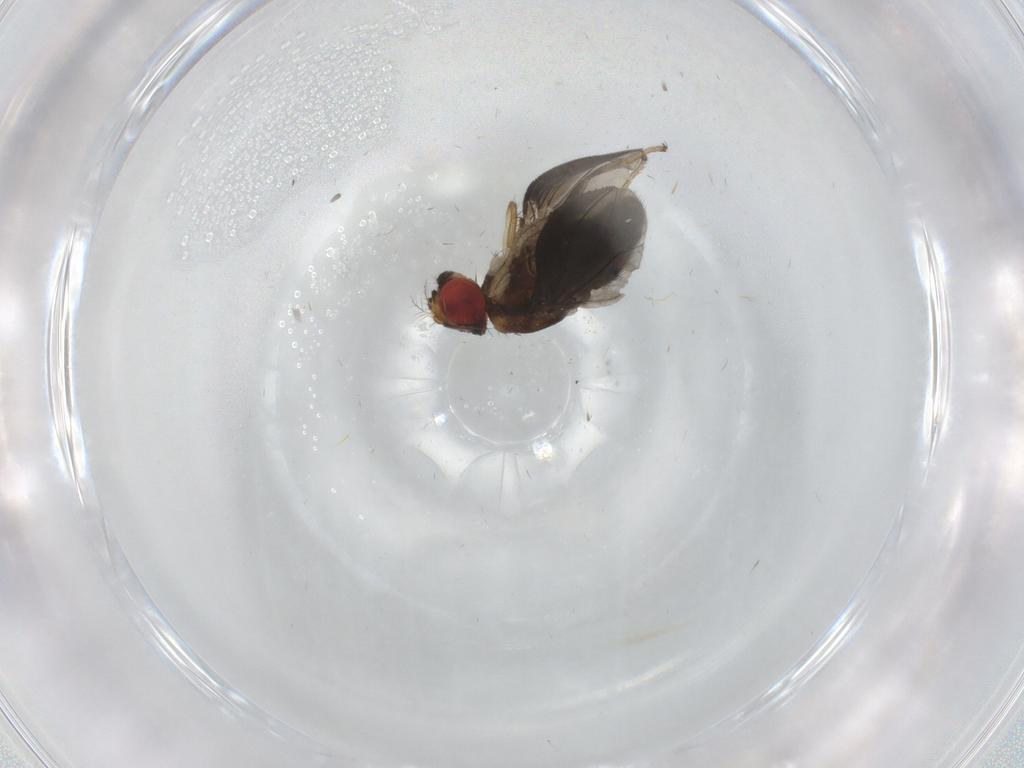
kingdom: Animalia
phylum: Arthropoda
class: Insecta
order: Diptera
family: Drosophilidae
